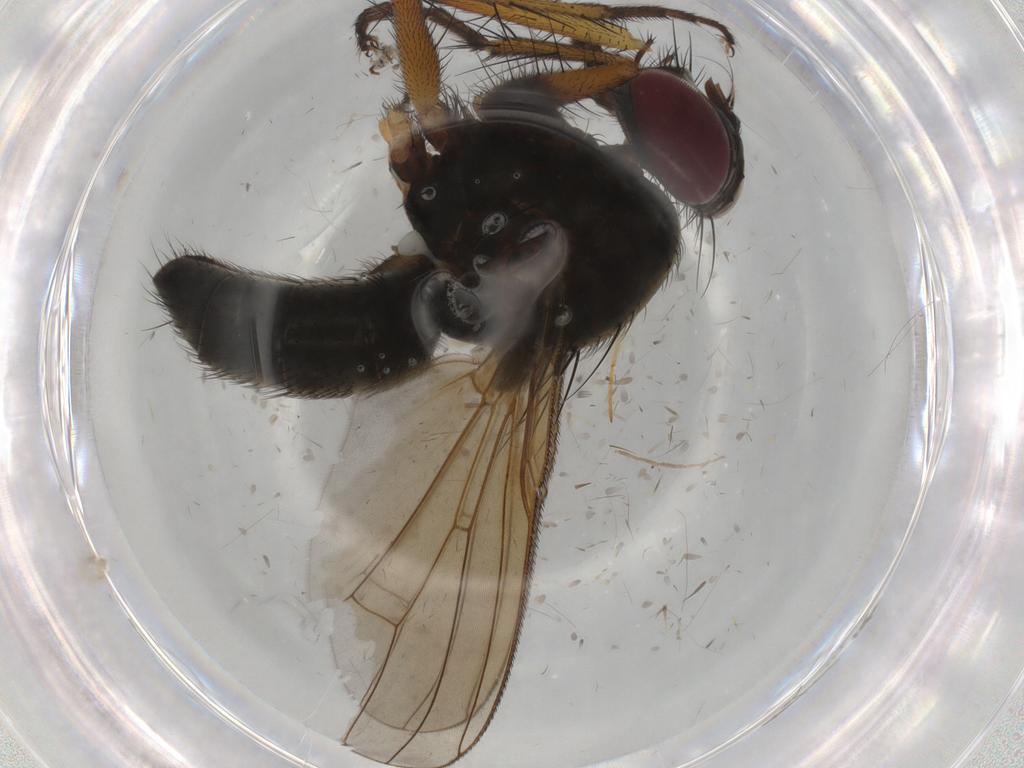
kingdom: Animalia
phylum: Arthropoda
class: Insecta
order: Diptera
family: Muscidae
